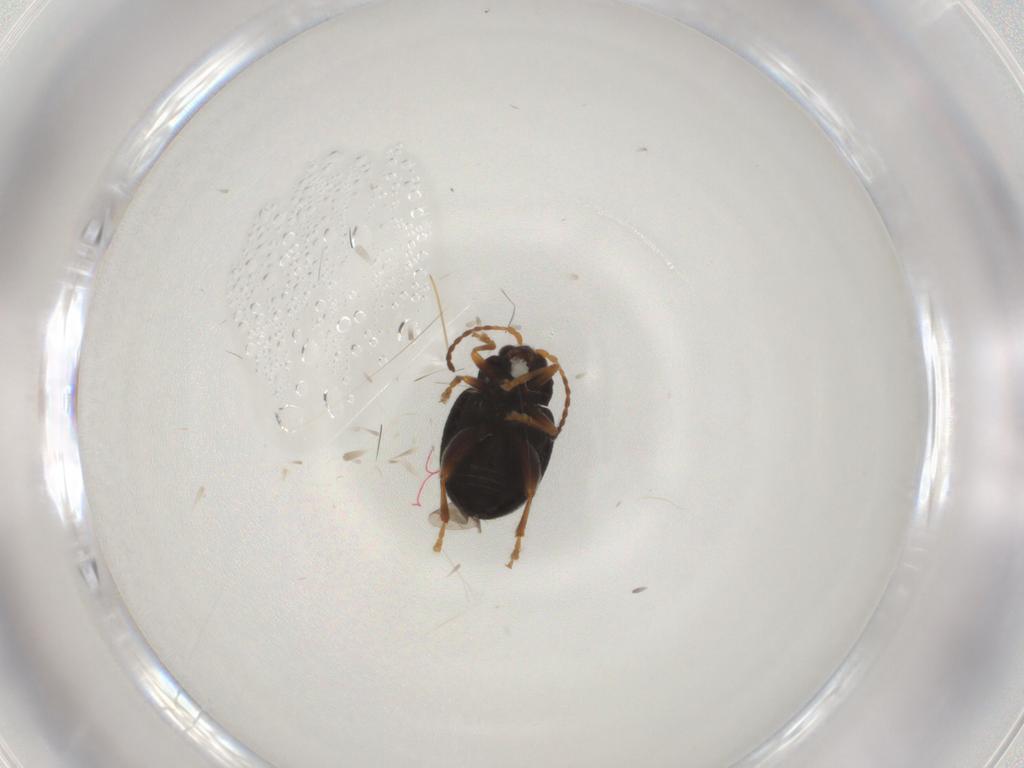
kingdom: Animalia
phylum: Arthropoda
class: Insecta
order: Coleoptera
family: Chrysomelidae
